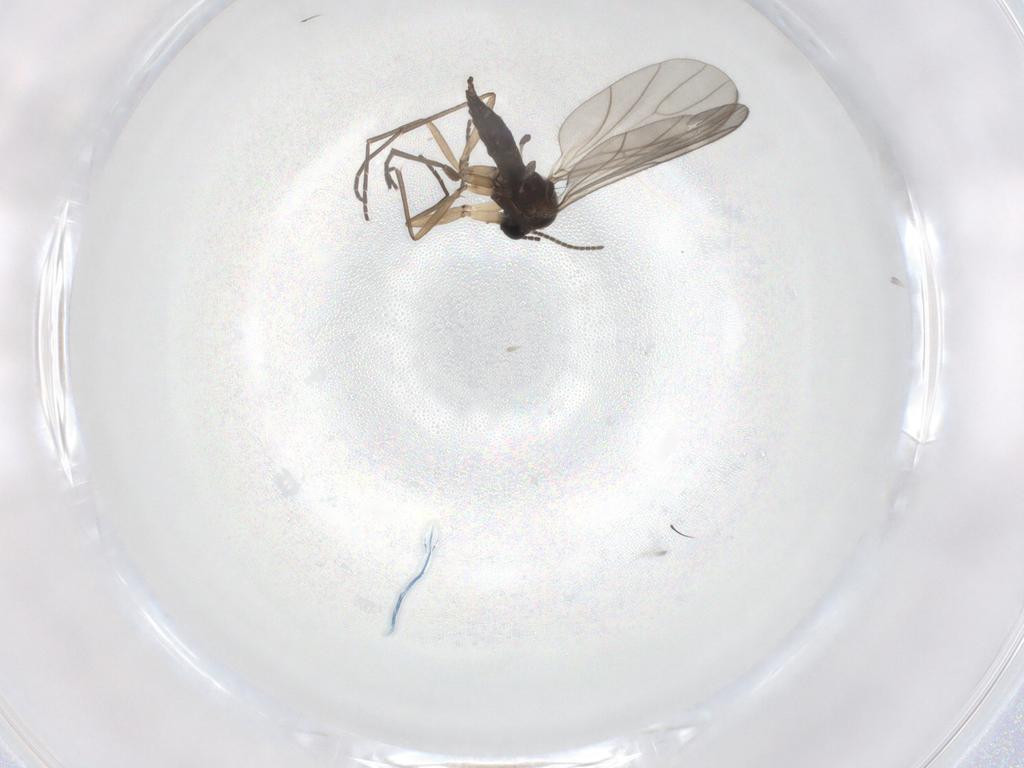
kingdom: Animalia
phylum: Arthropoda
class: Insecta
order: Diptera
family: Sciaridae
